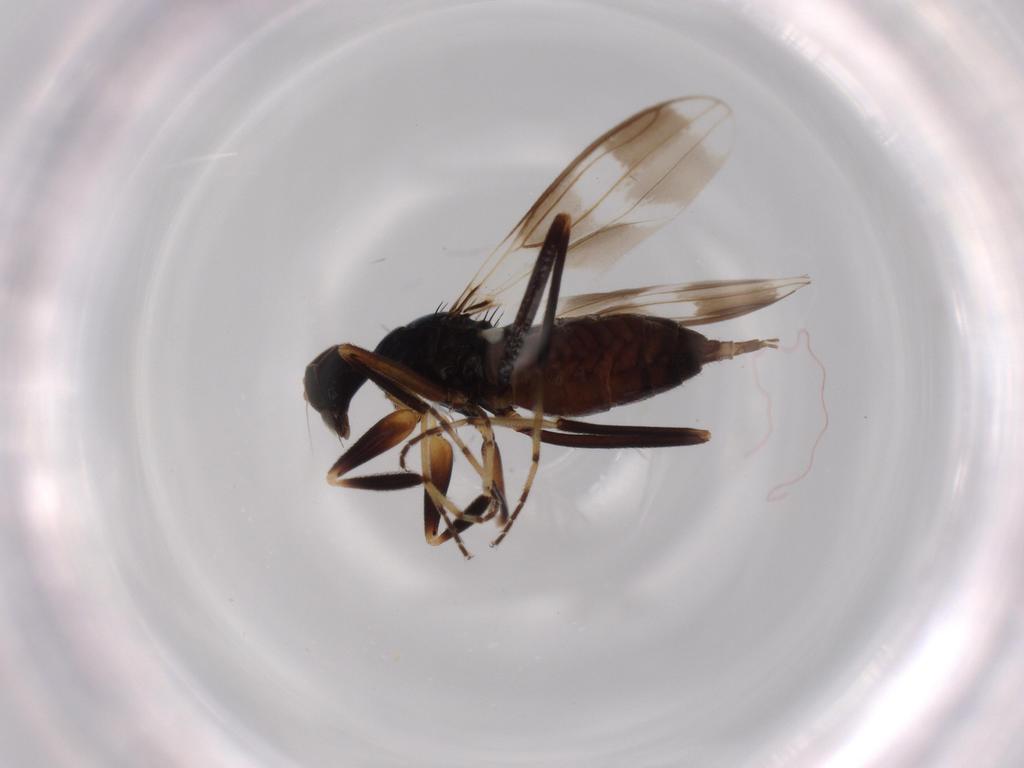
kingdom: Animalia
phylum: Arthropoda
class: Insecta
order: Diptera
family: Hybotidae
